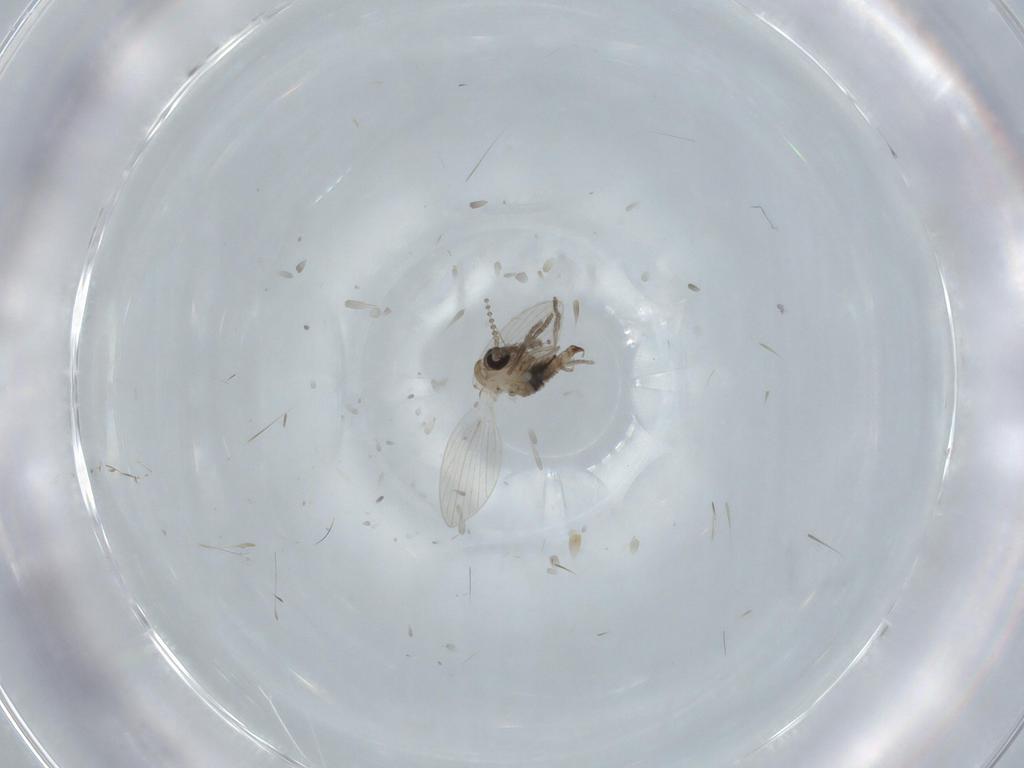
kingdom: Animalia
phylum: Arthropoda
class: Insecta
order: Diptera
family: Psychodidae
